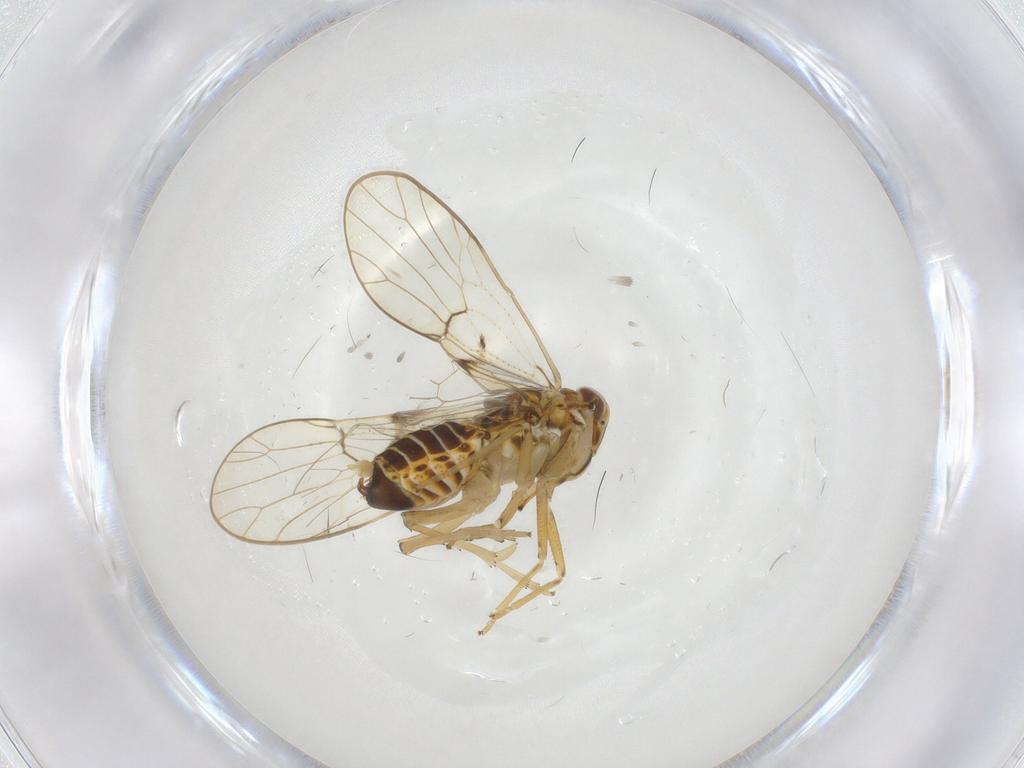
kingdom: Animalia
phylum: Arthropoda
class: Insecta
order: Hemiptera
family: Delphacidae
